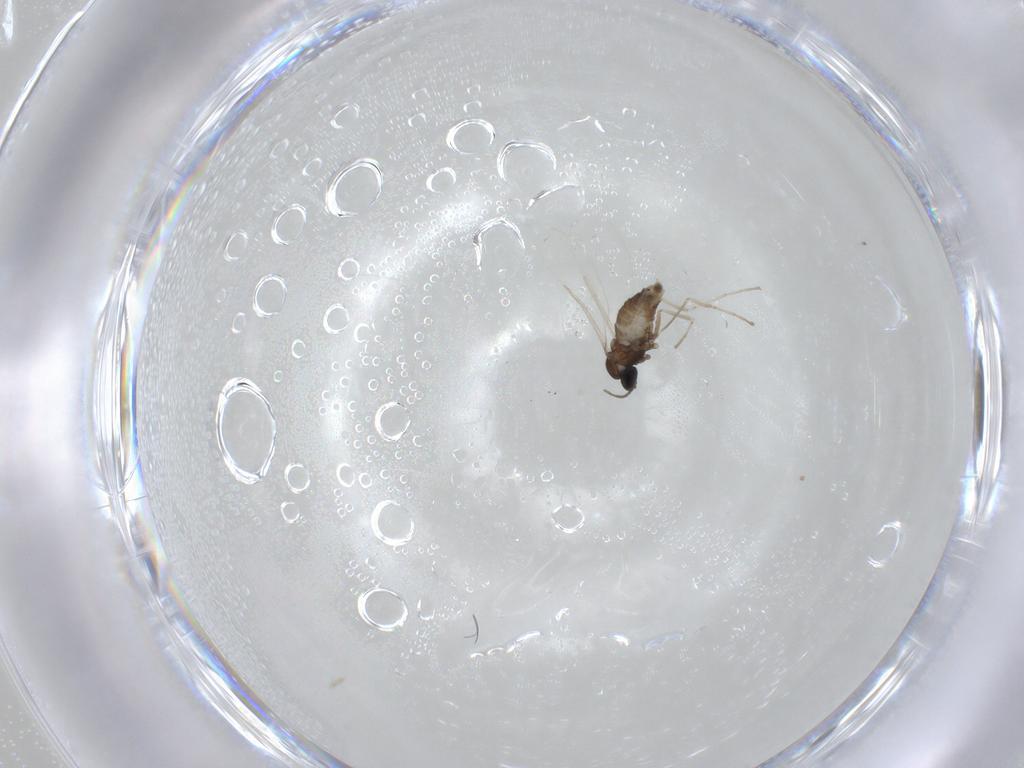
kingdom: Animalia
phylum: Arthropoda
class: Insecta
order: Diptera
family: Cecidomyiidae
